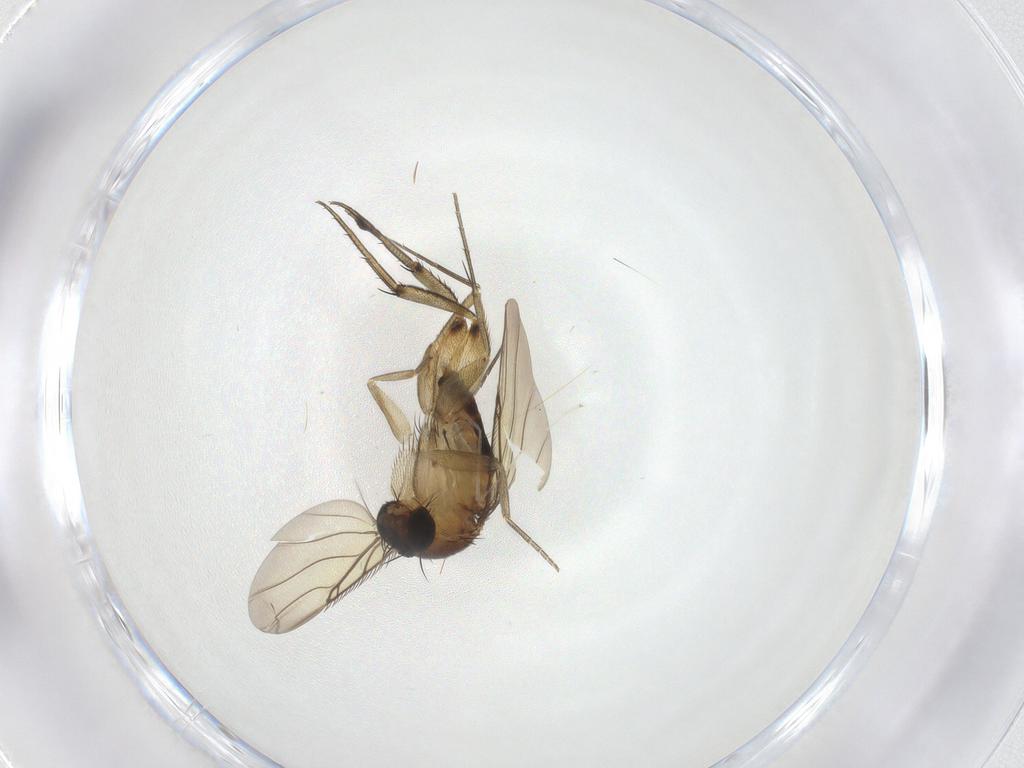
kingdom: Animalia
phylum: Arthropoda
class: Insecta
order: Diptera
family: Phoridae
